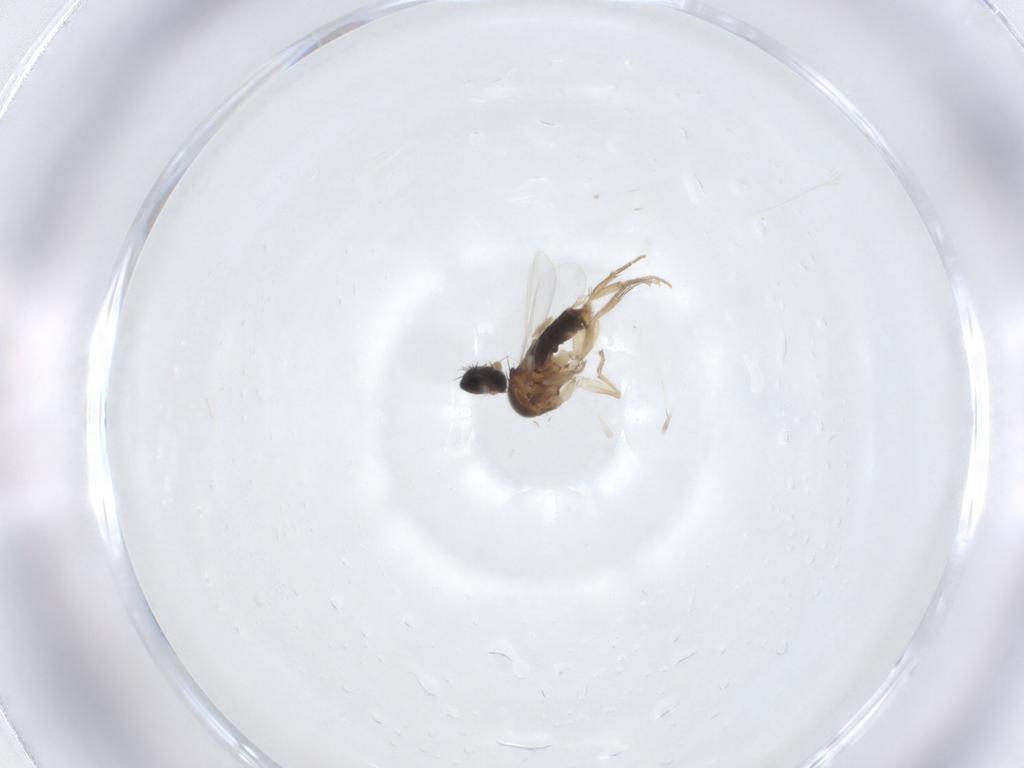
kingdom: Animalia
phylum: Arthropoda
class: Insecta
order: Diptera
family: Phoridae
